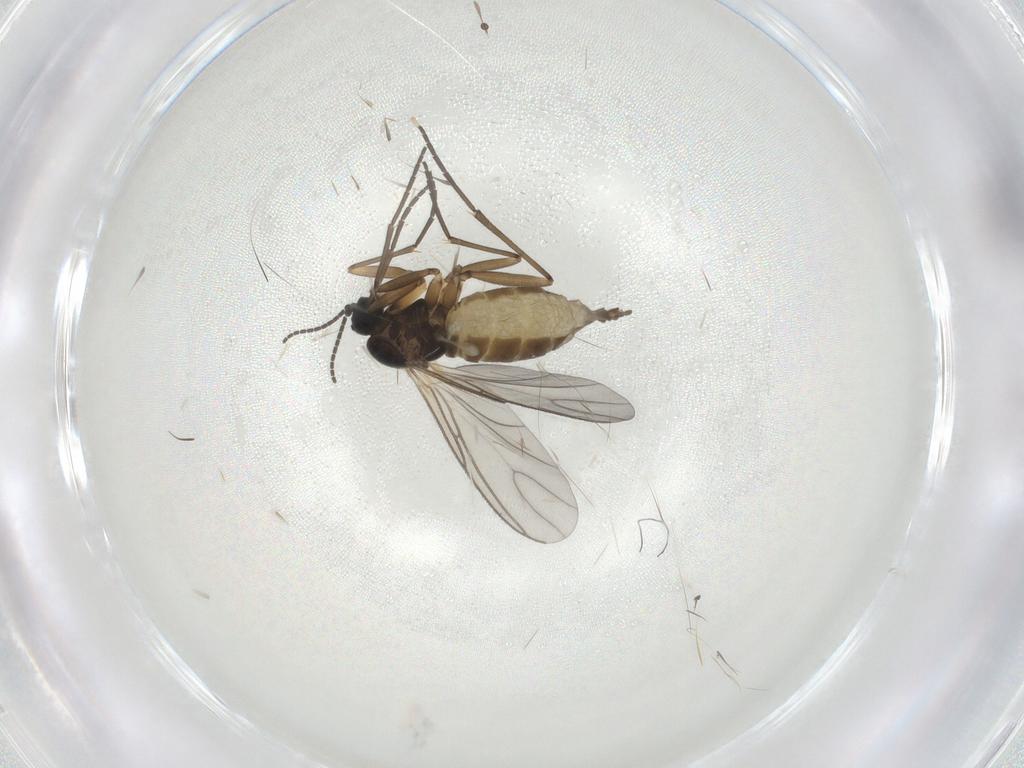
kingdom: Animalia
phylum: Arthropoda
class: Insecta
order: Diptera
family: Sciaridae
